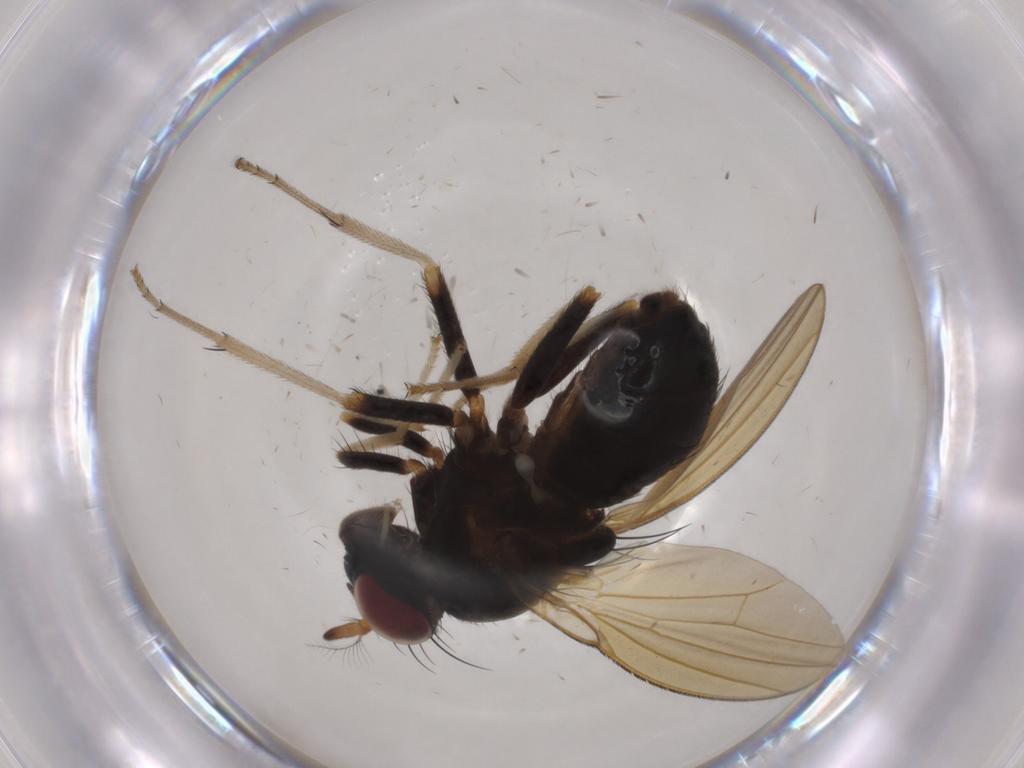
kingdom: Animalia
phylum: Arthropoda
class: Insecta
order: Diptera
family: Lauxaniidae
